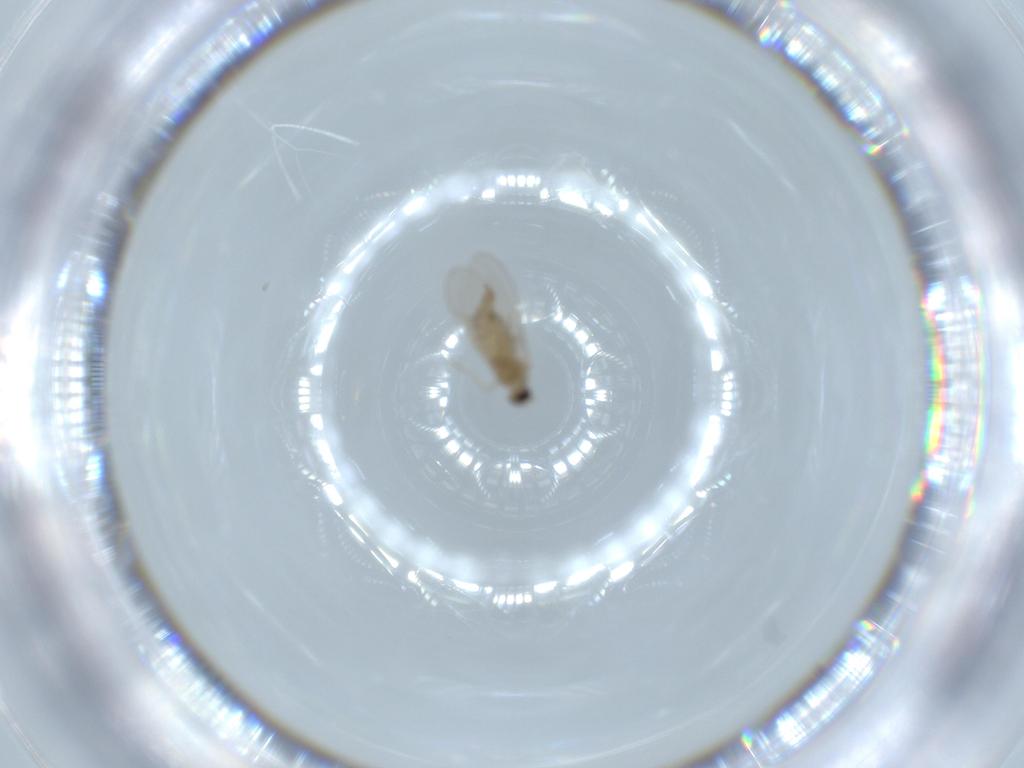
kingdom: Animalia
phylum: Arthropoda
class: Insecta
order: Diptera
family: Cecidomyiidae
